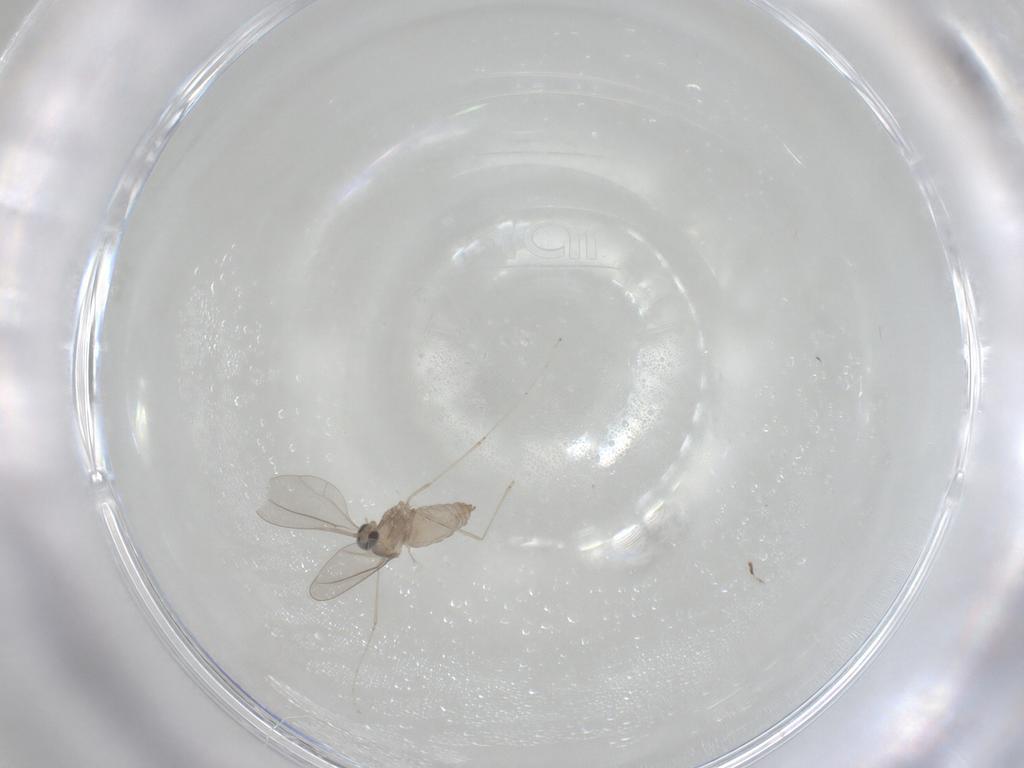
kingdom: Animalia
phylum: Arthropoda
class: Insecta
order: Diptera
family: Cecidomyiidae
